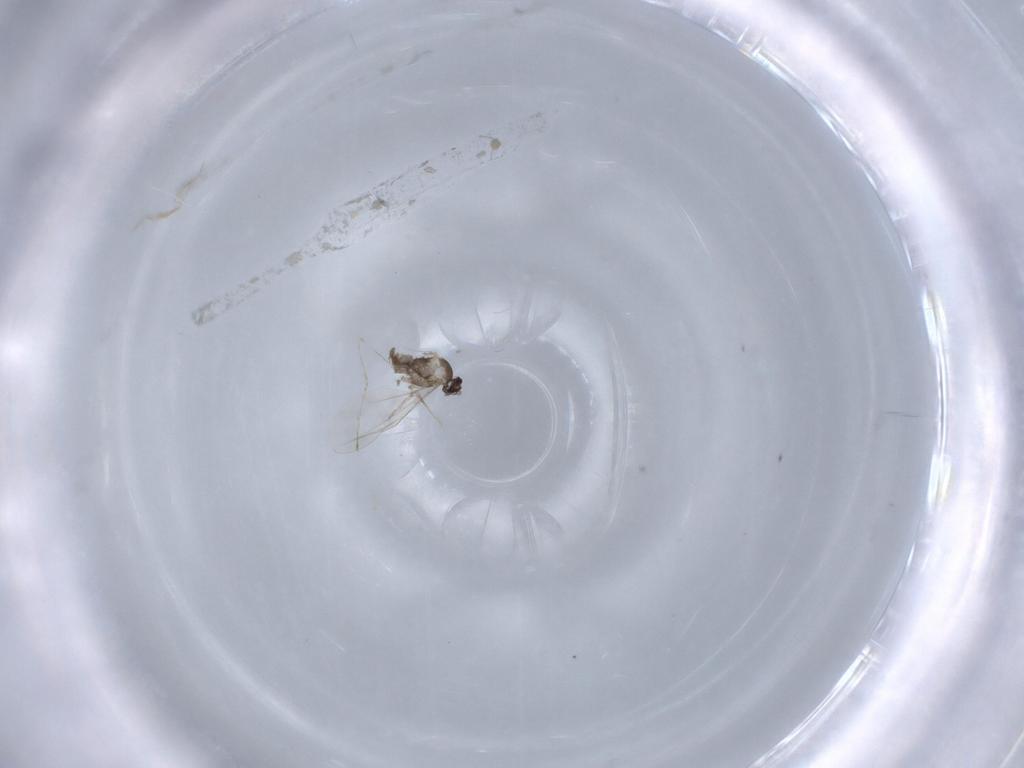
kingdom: Animalia
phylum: Arthropoda
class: Insecta
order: Diptera
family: Cecidomyiidae
